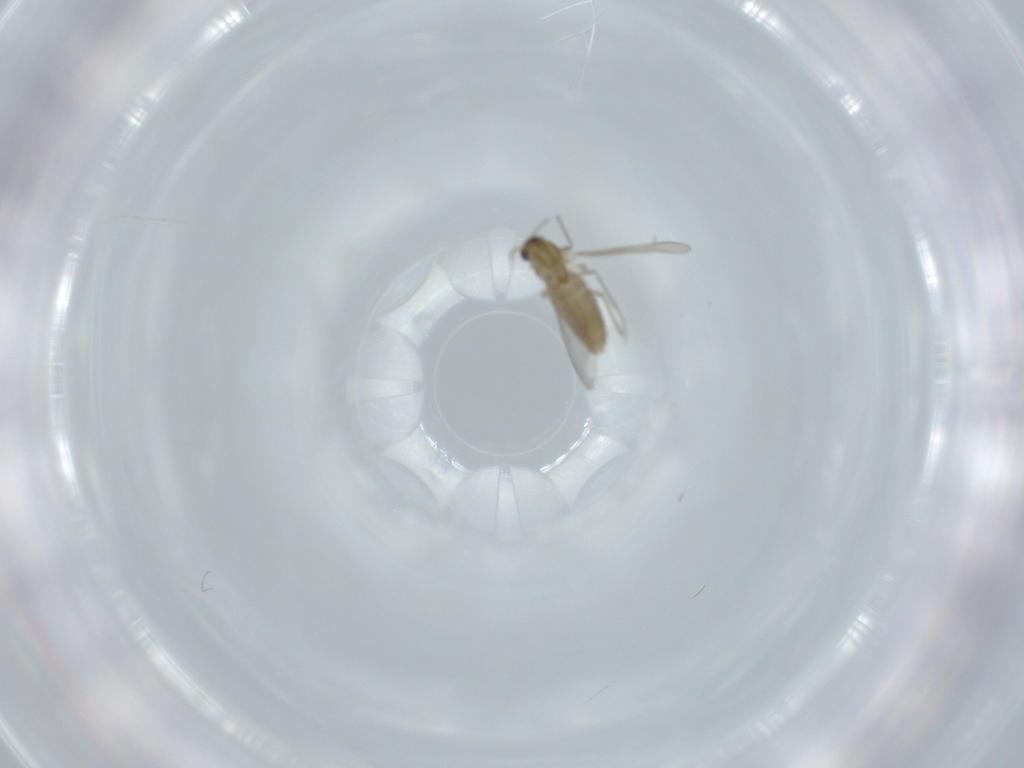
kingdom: Animalia
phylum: Arthropoda
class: Insecta
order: Diptera
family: Chironomidae
